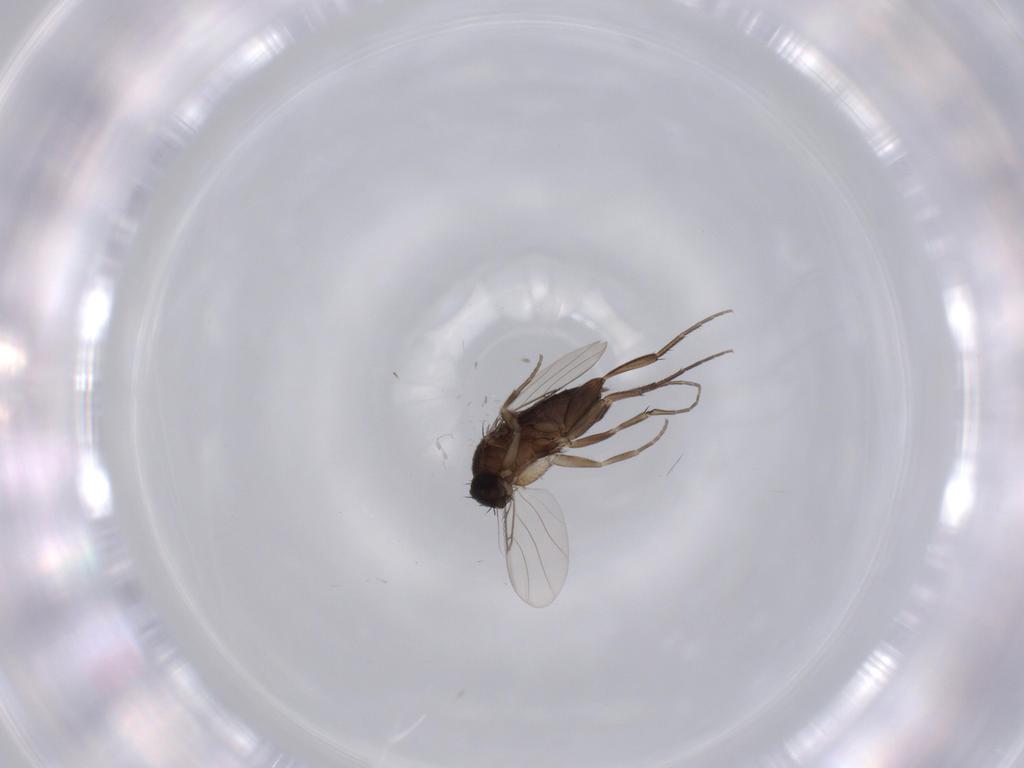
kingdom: Animalia
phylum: Arthropoda
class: Insecta
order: Diptera
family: Phoridae
